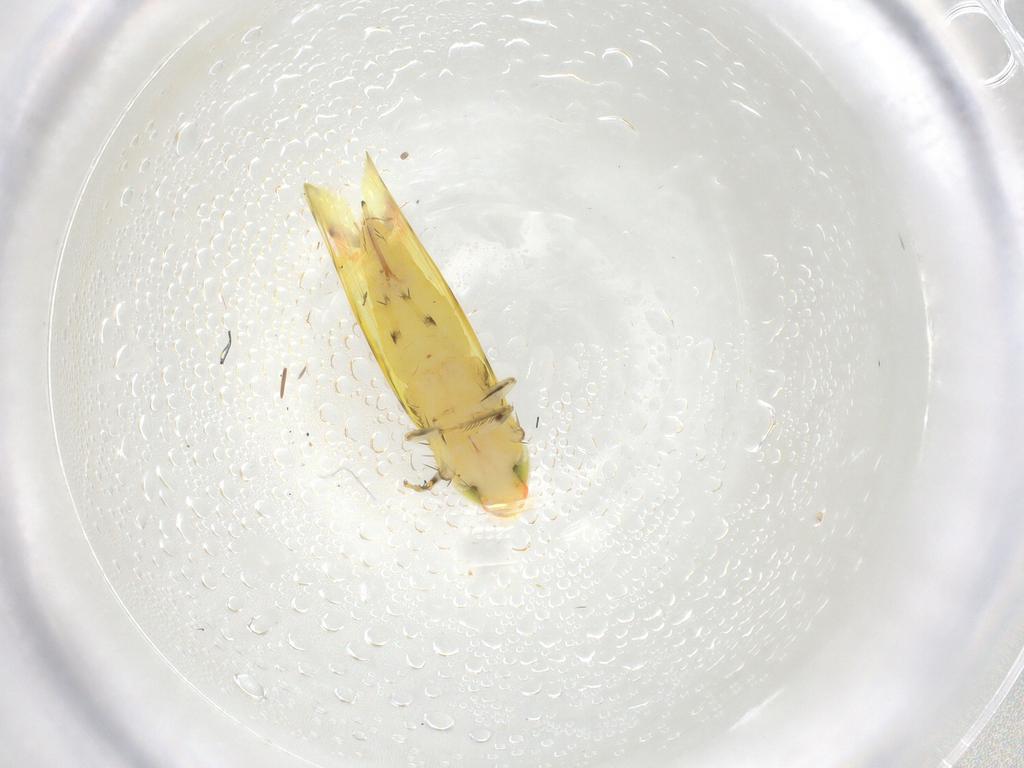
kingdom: Animalia
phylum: Arthropoda
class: Insecta
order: Hemiptera
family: Cicadellidae
